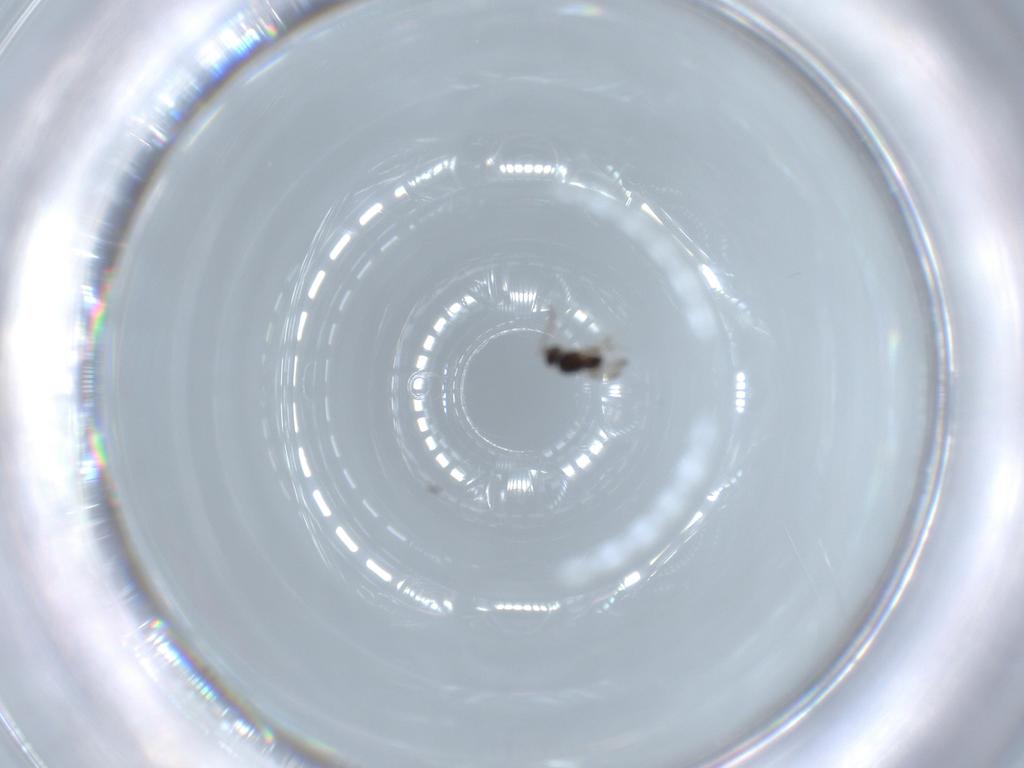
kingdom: Animalia
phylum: Arthropoda
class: Insecta
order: Hymenoptera
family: Ceraphronidae
